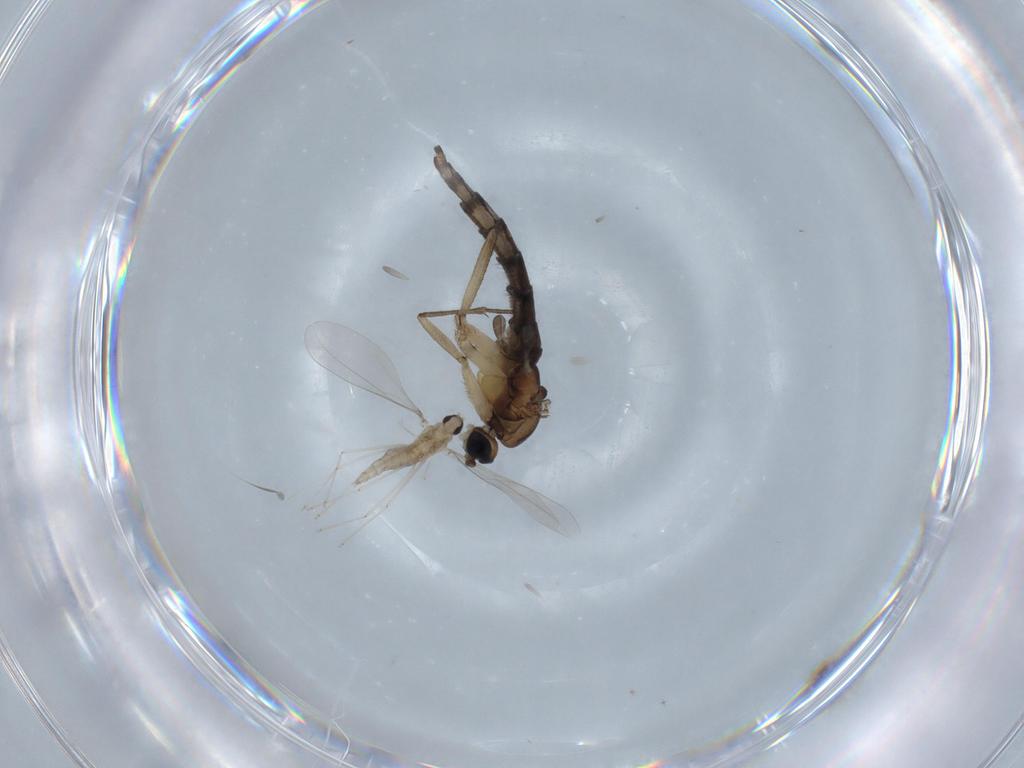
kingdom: Animalia
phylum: Arthropoda
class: Insecta
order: Diptera
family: Cecidomyiidae
